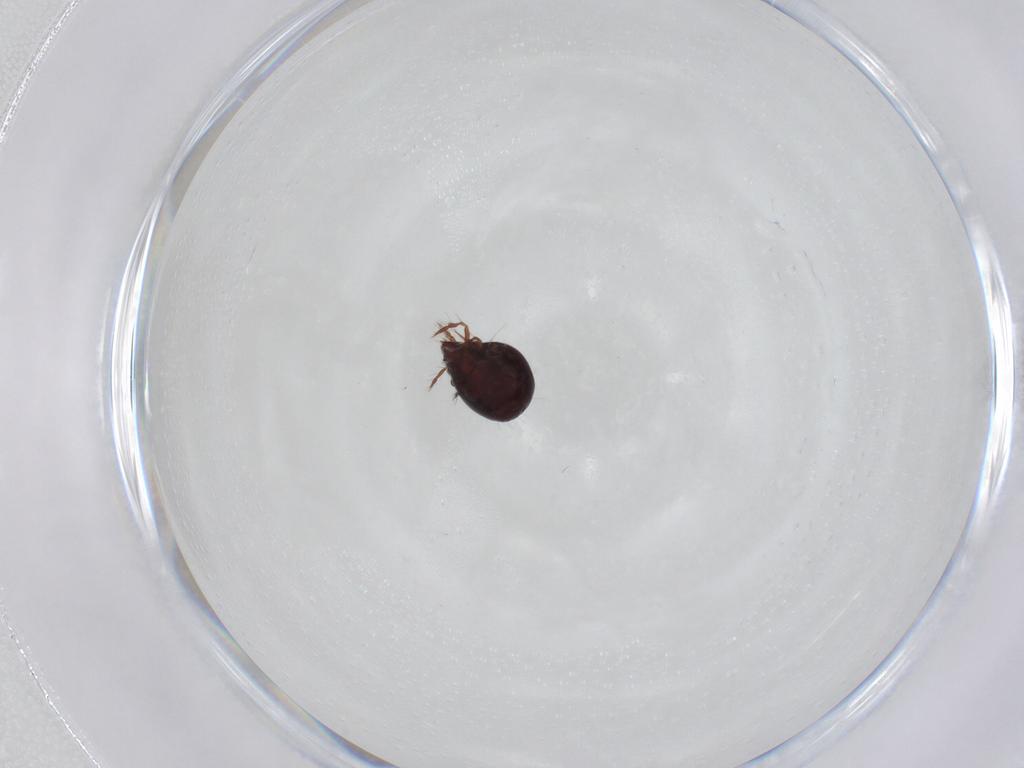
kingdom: Animalia
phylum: Arthropoda
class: Arachnida
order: Sarcoptiformes
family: Ceratoppiidae
